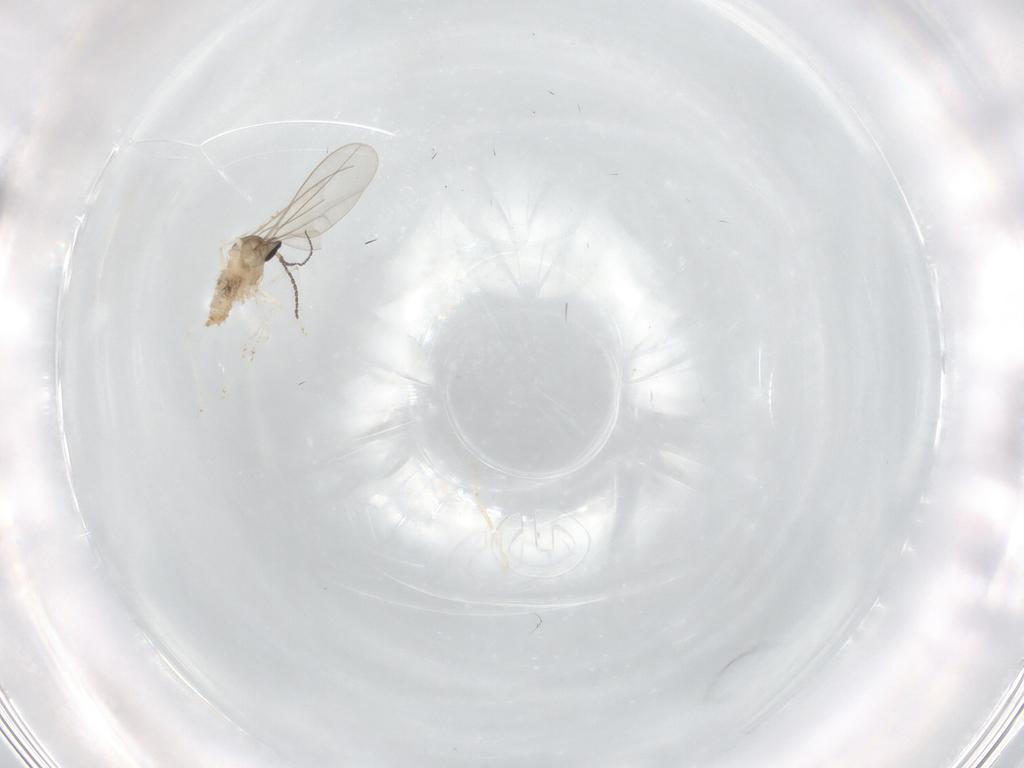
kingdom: Animalia
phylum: Arthropoda
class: Insecta
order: Diptera
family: Cecidomyiidae
